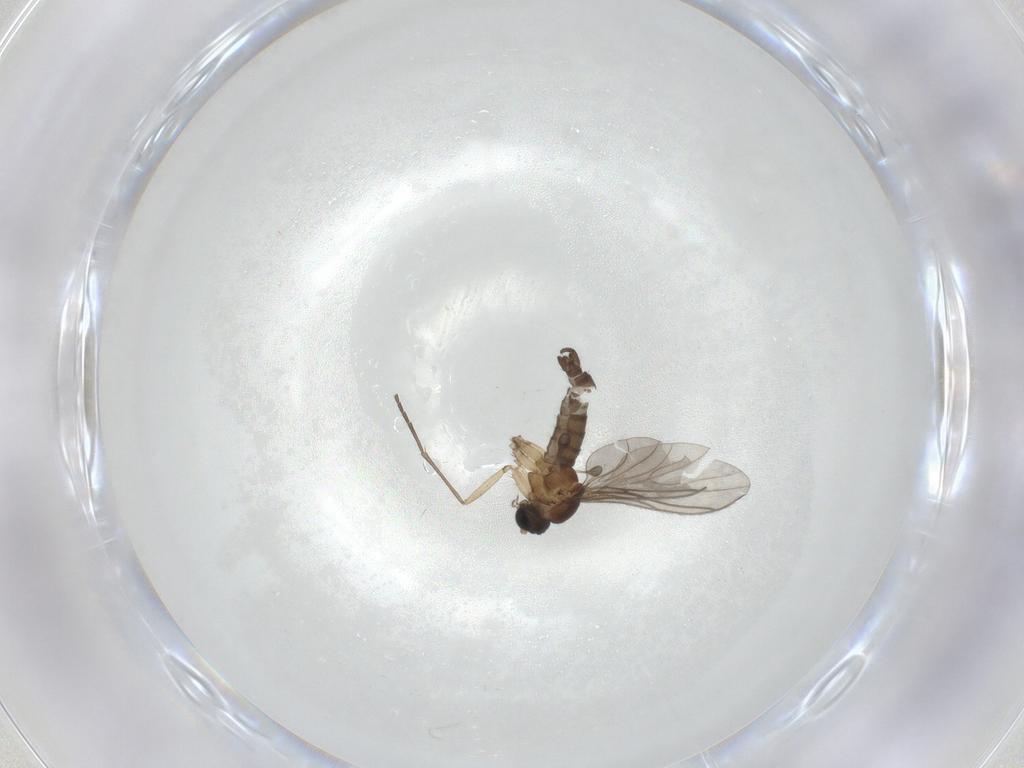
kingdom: Animalia
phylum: Arthropoda
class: Insecta
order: Diptera
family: Sciaridae
